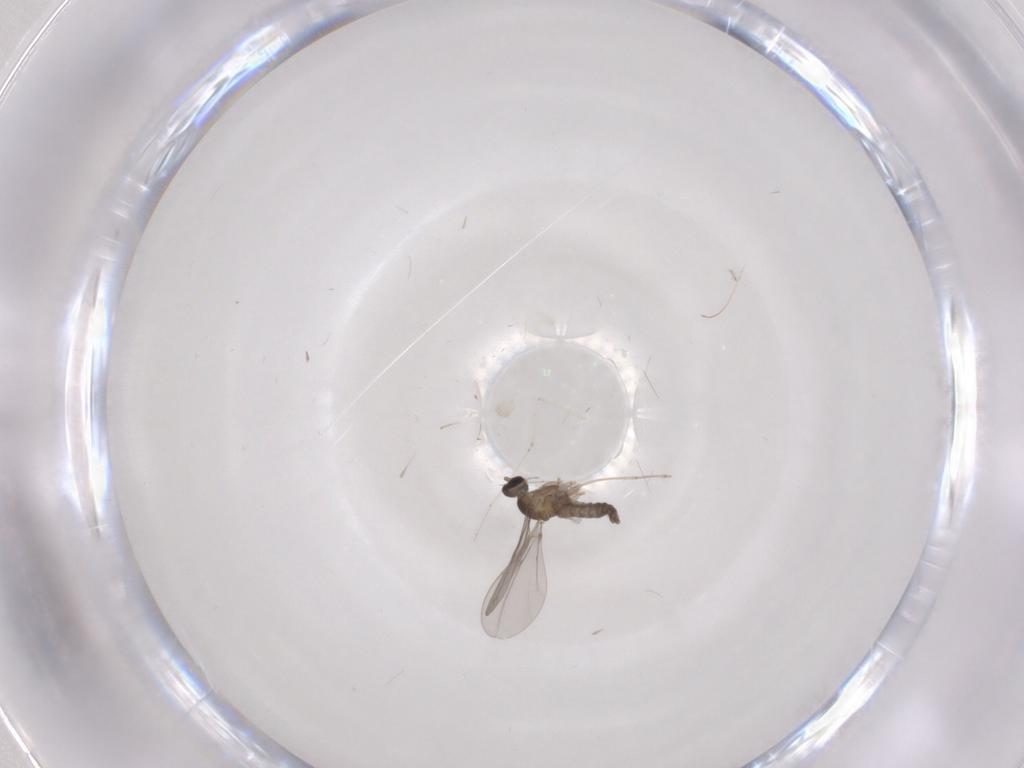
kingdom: Animalia
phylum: Arthropoda
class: Insecta
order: Diptera
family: Cecidomyiidae
